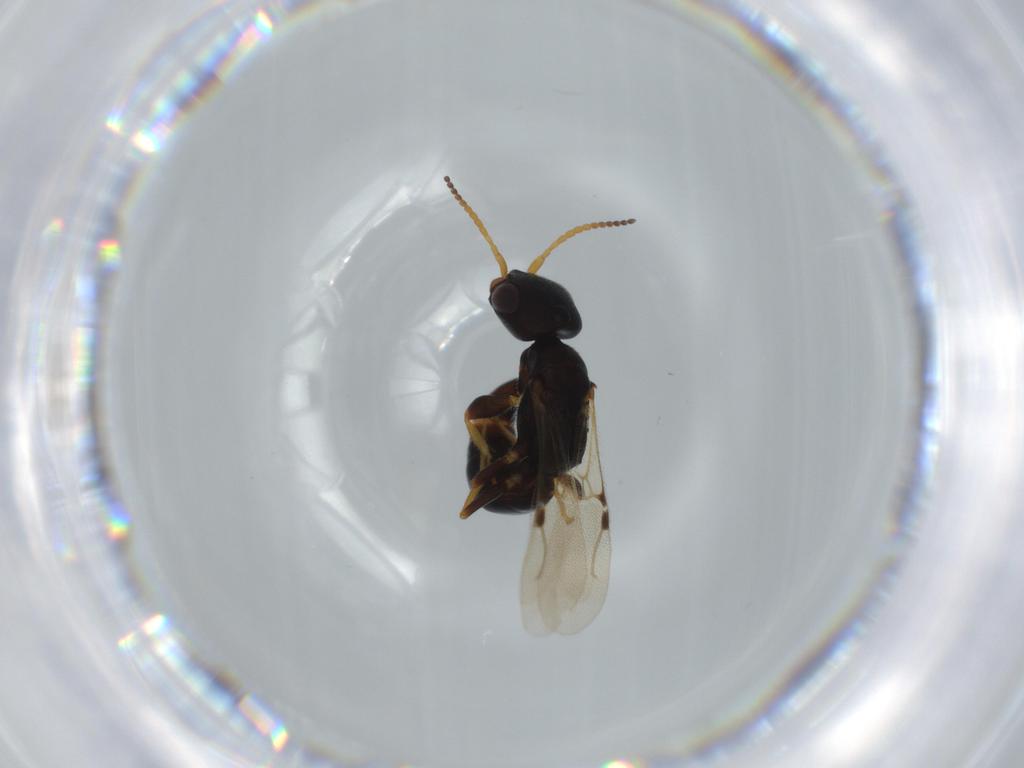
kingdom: Animalia
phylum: Arthropoda
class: Insecta
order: Hymenoptera
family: Bethylidae
